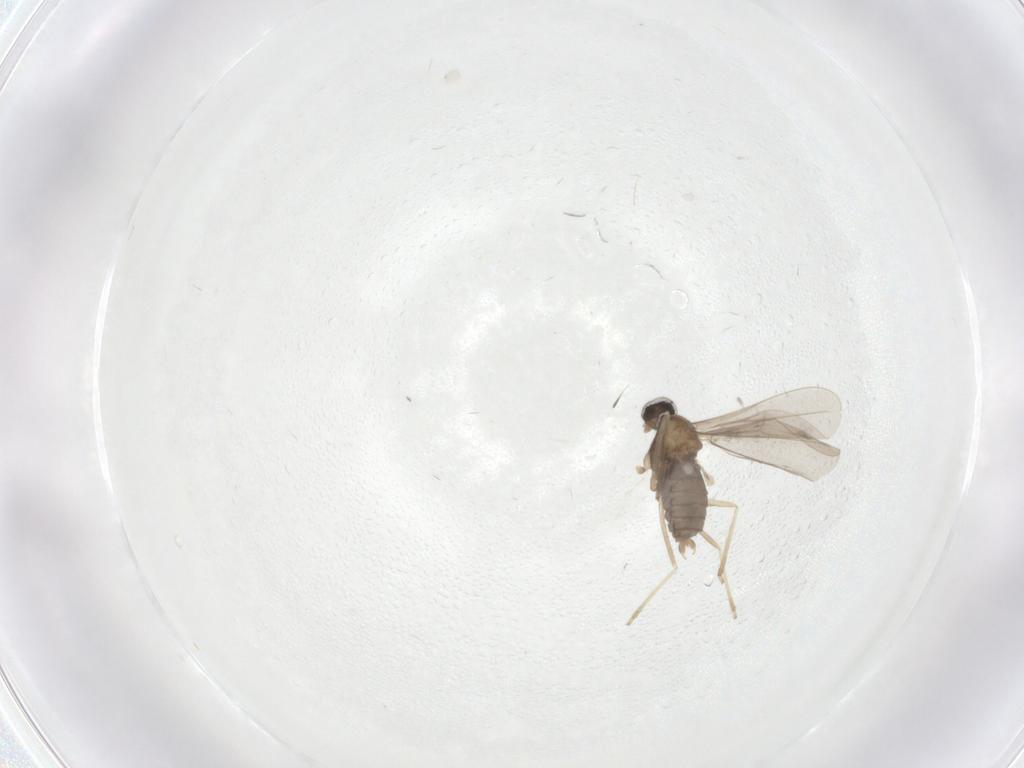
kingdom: Animalia
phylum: Arthropoda
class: Insecta
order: Diptera
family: Cecidomyiidae
